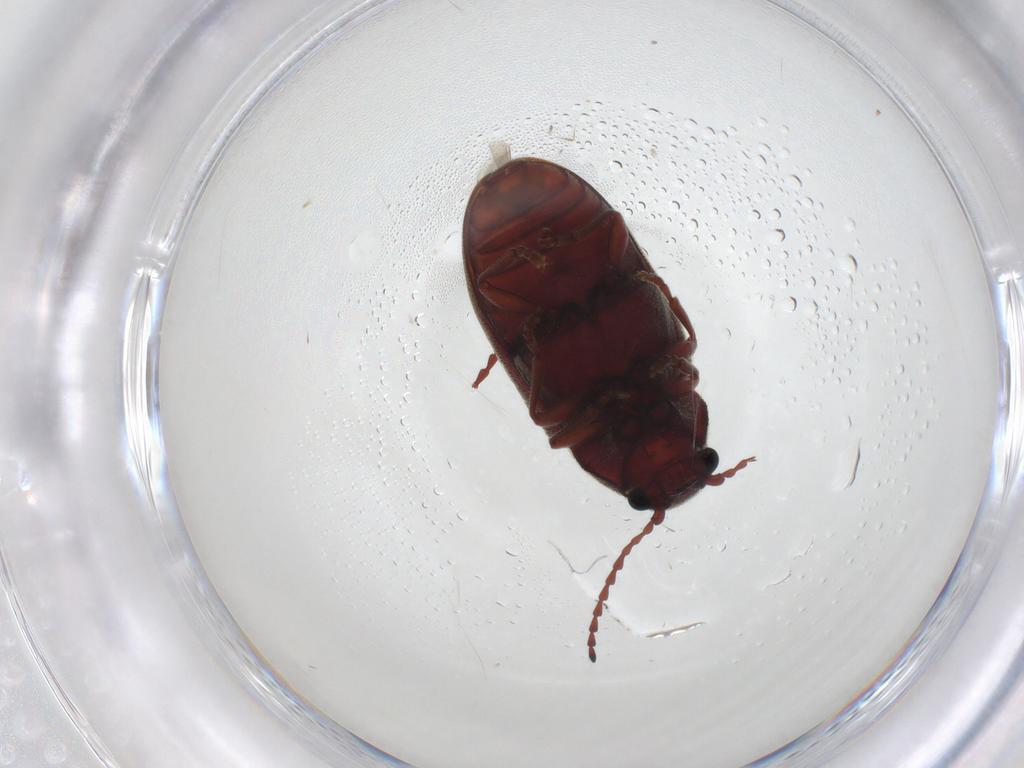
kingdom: Animalia
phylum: Arthropoda
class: Insecta
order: Coleoptera
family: Ptinidae
